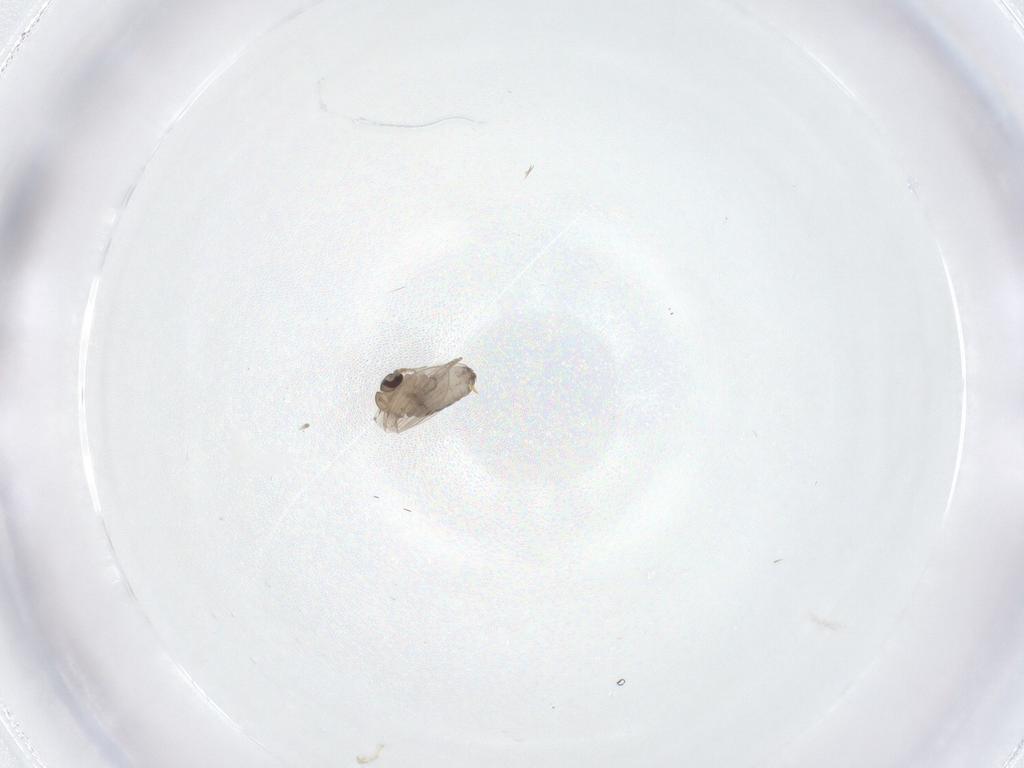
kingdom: Animalia
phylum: Arthropoda
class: Insecta
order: Diptera
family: Psychodidae
